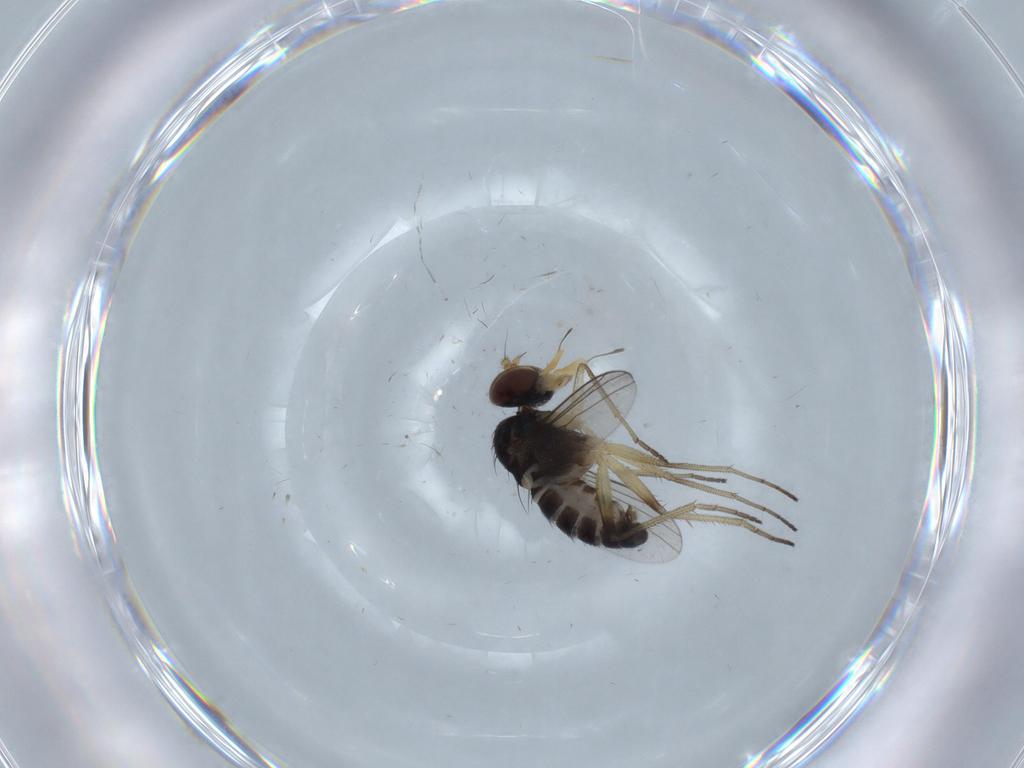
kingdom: Animalia
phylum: Arthropoda
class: Insecta
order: Diptera
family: Dolichopodidae
